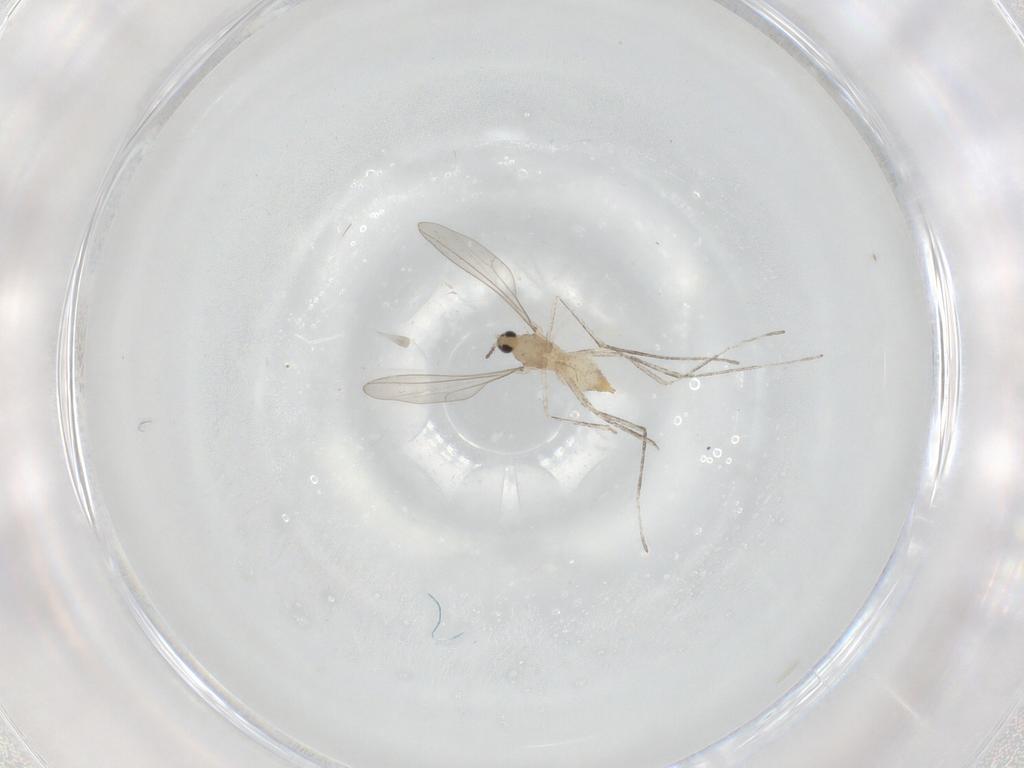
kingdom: Animalia
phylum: Arthropoda
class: Insecta
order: Diptera
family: Cecidomyiidae
